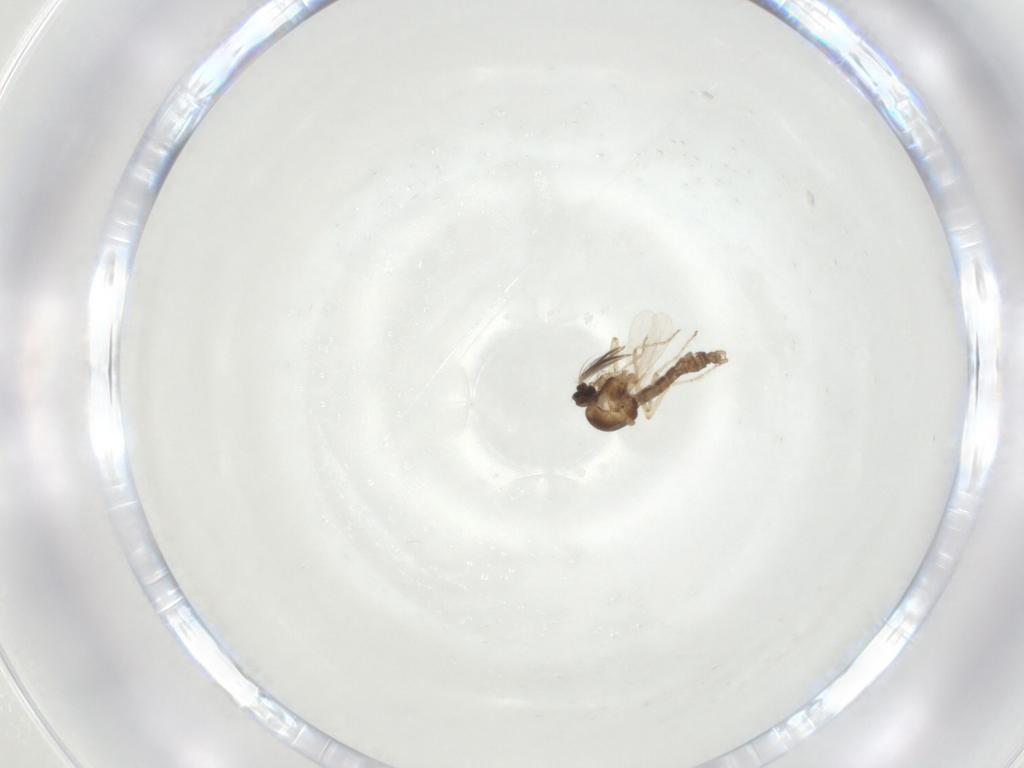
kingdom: Animalia
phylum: Arthropoda
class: Insecta
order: Diptera
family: Ceratopogonidae
